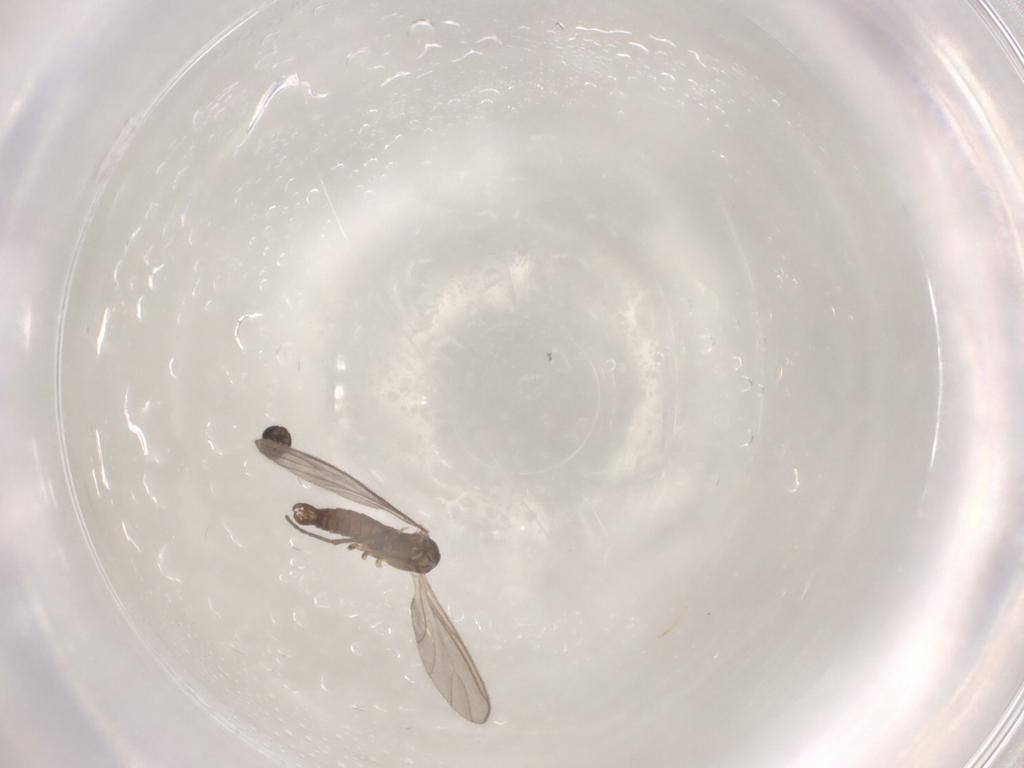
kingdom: Animalia
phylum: Arthropoda
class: Insecta
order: Diptera
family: Sciaridae
